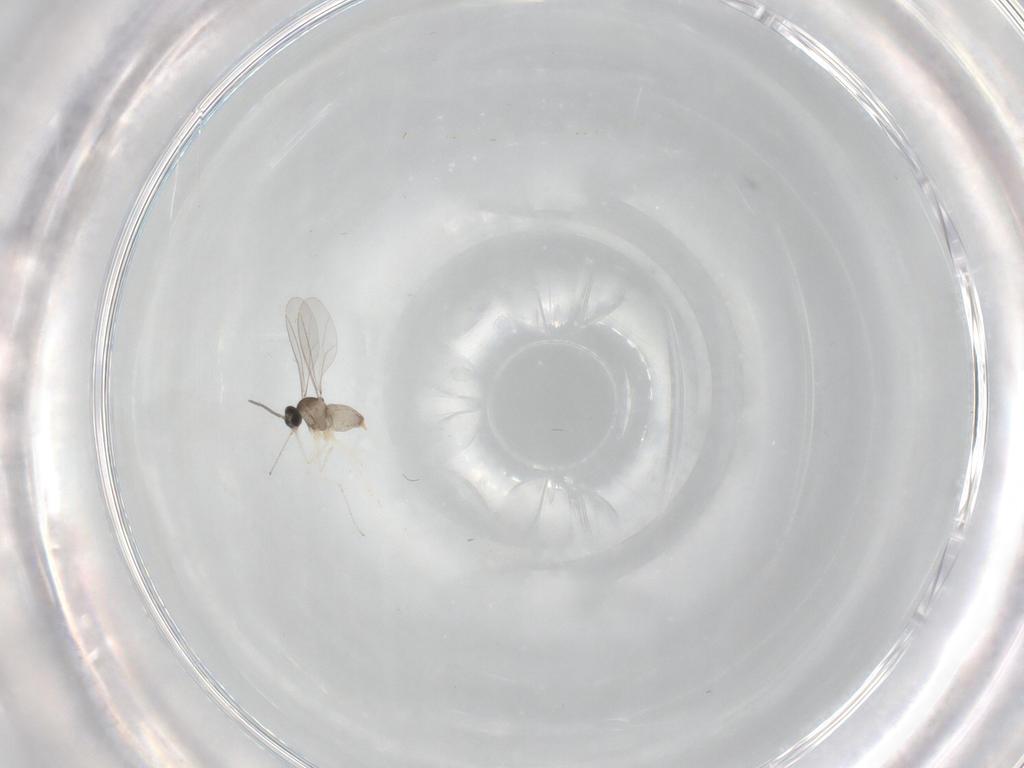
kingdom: Animalia
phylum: Arthropoda
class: Insecta
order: Diptera
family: Cecidomyiidae
